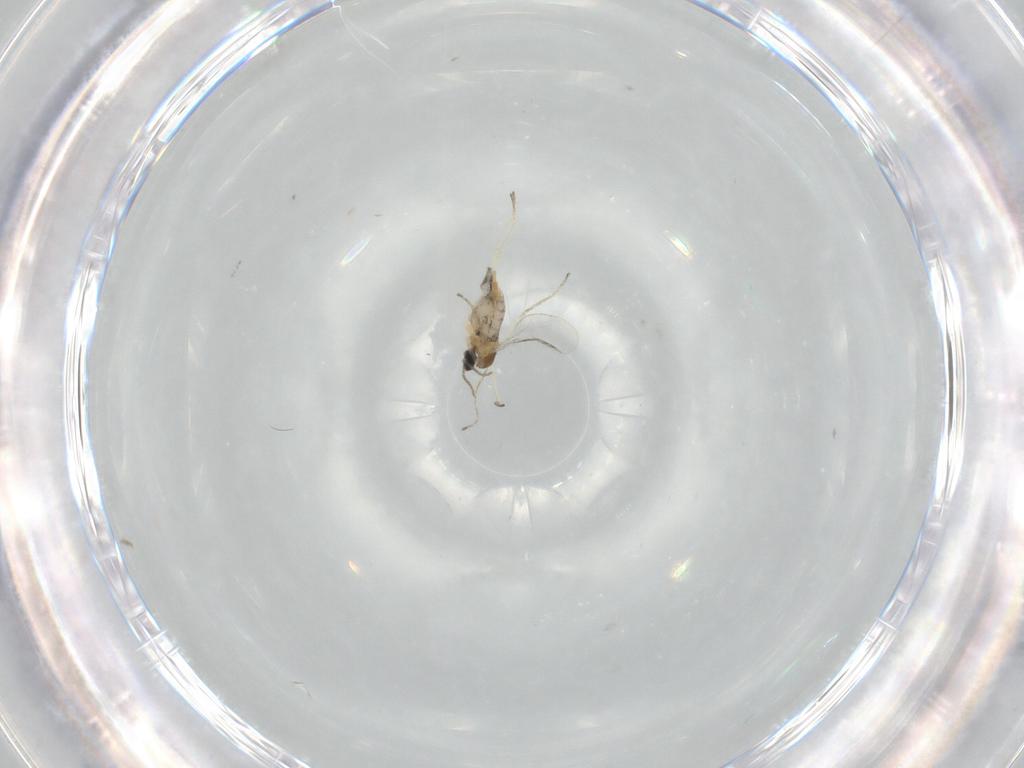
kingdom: Animalia
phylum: Arthropoda
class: Insecta
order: Diptera
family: Cecidomyiidae
